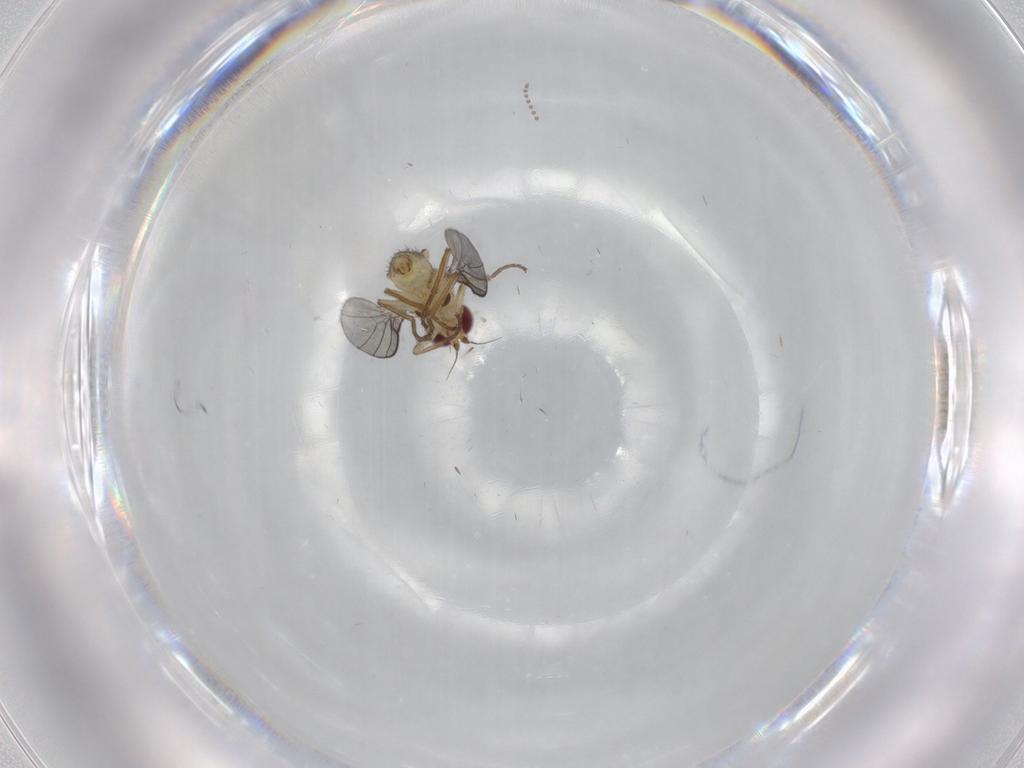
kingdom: Animalia
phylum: Arthropoda
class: Insecta
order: Diptera
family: Agromyzidae
